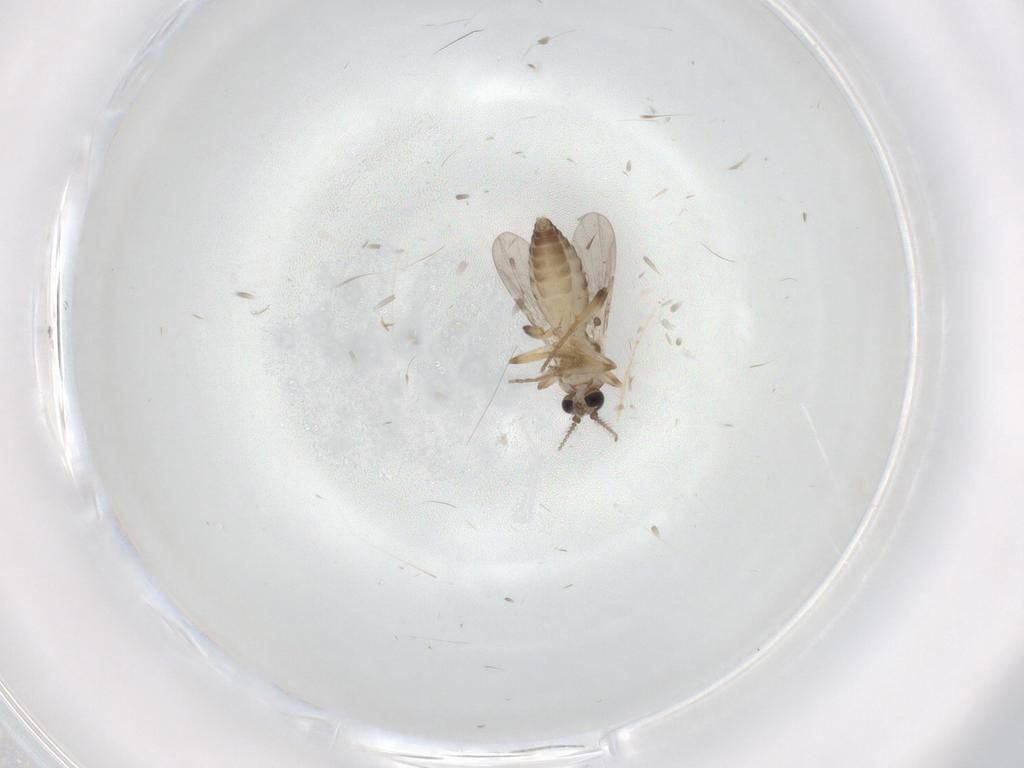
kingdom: Animalia
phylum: Arthropoda
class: Insecta
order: Diptera
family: Ceratopogonidae
